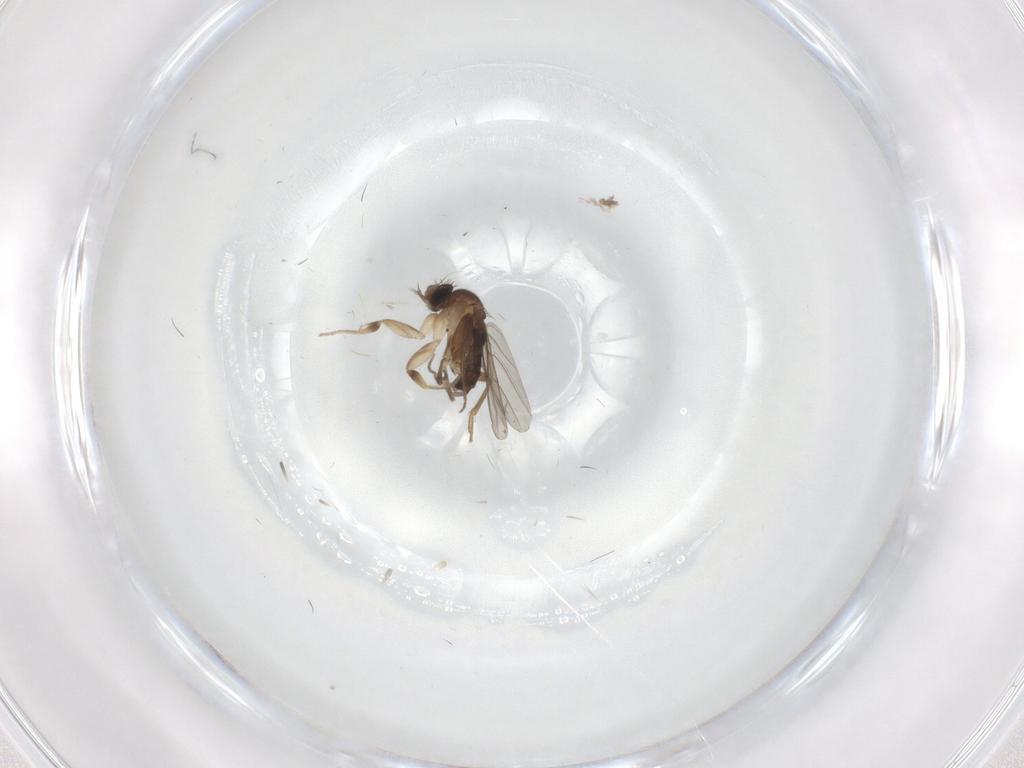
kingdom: Animalia
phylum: Arthropoda
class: Insecta
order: Diptera
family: Phoridae
